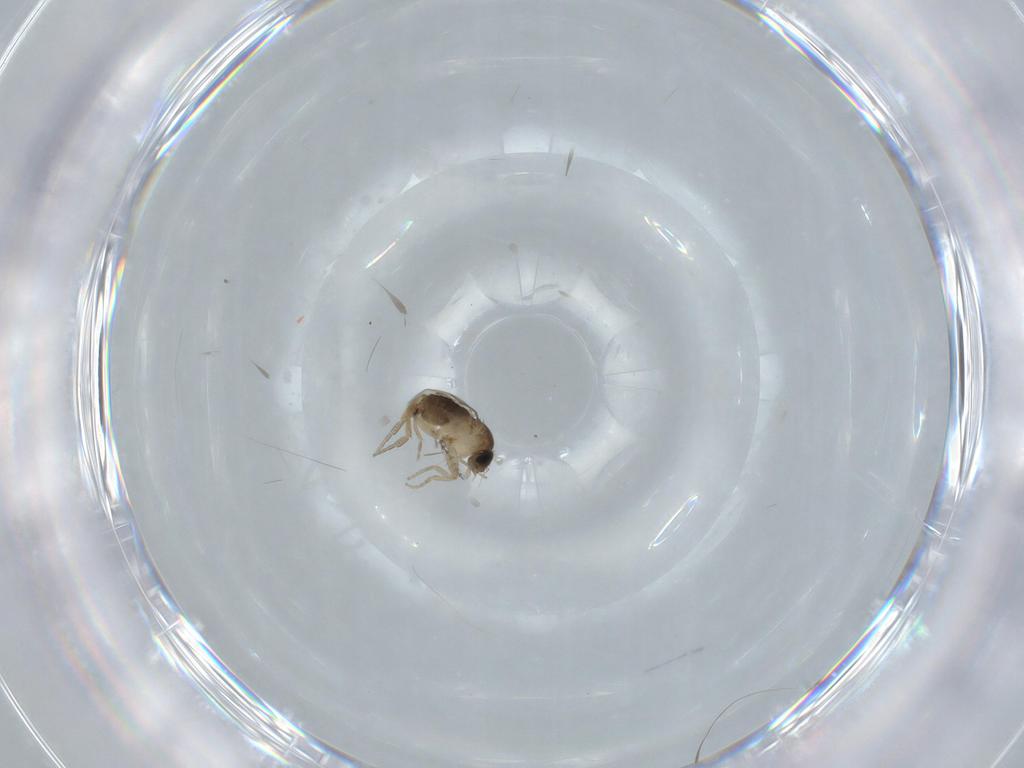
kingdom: Animalia
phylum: Arthropoda
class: Insecta
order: Diptera
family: Phoridae
